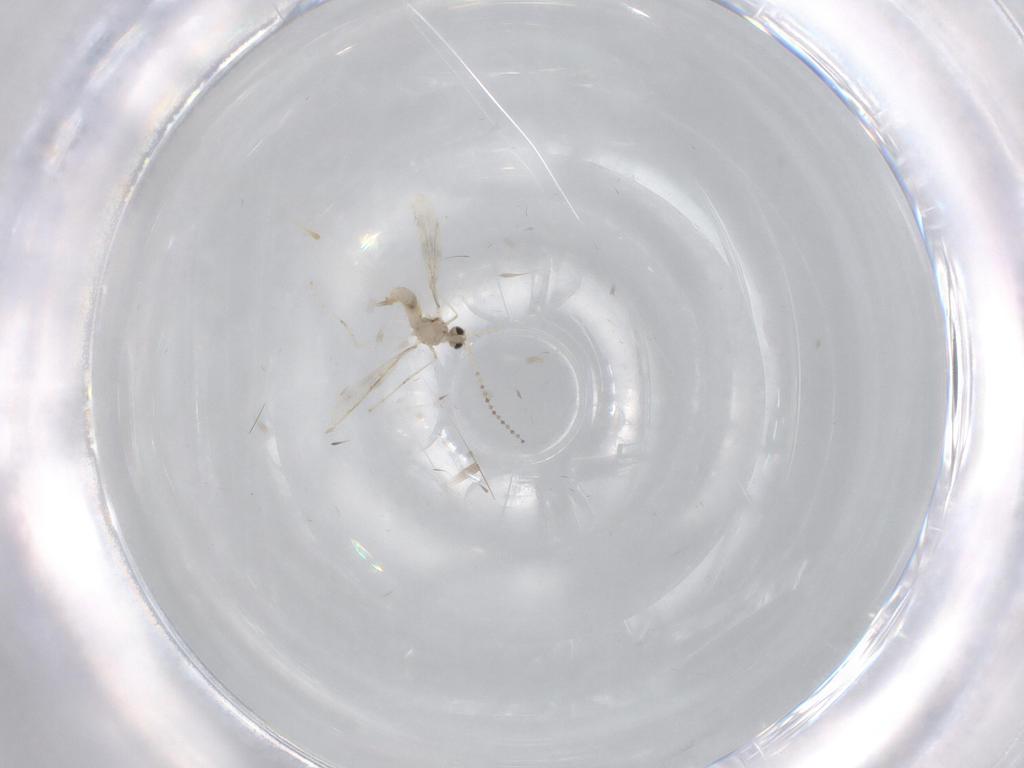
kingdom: Animalia
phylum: Arthropoda
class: Insecta
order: Diptera
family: Cecidomyiidae
